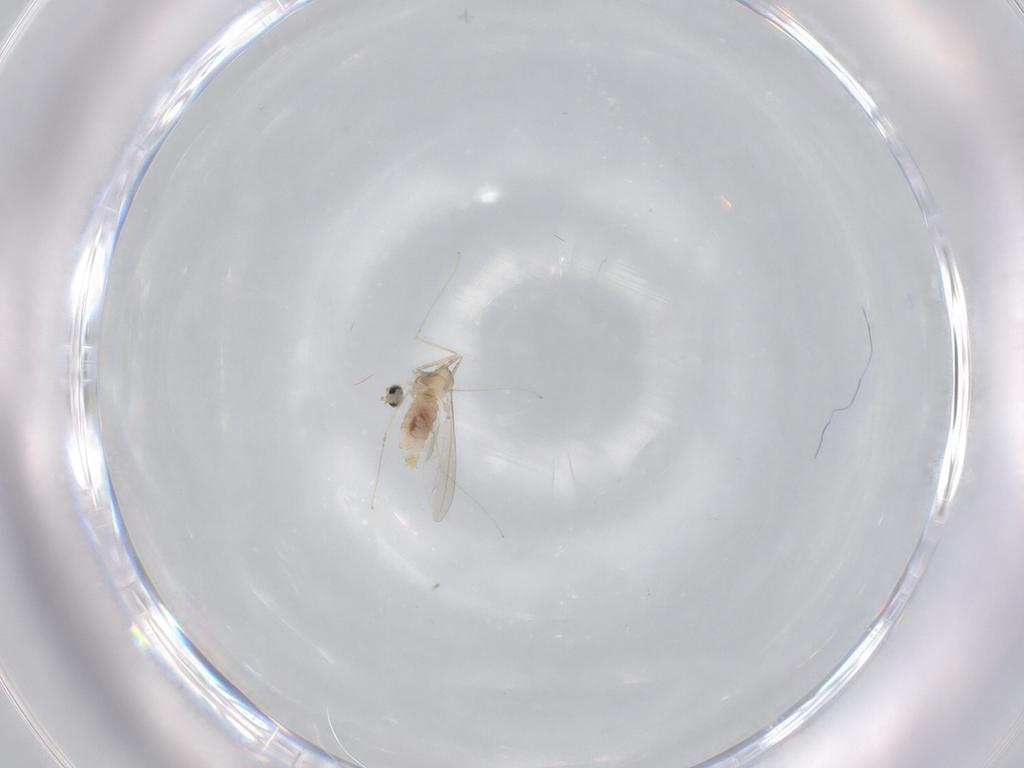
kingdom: Animalia
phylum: Arthropoda
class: Insecta
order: Diptera
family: Cecidomyiidae
